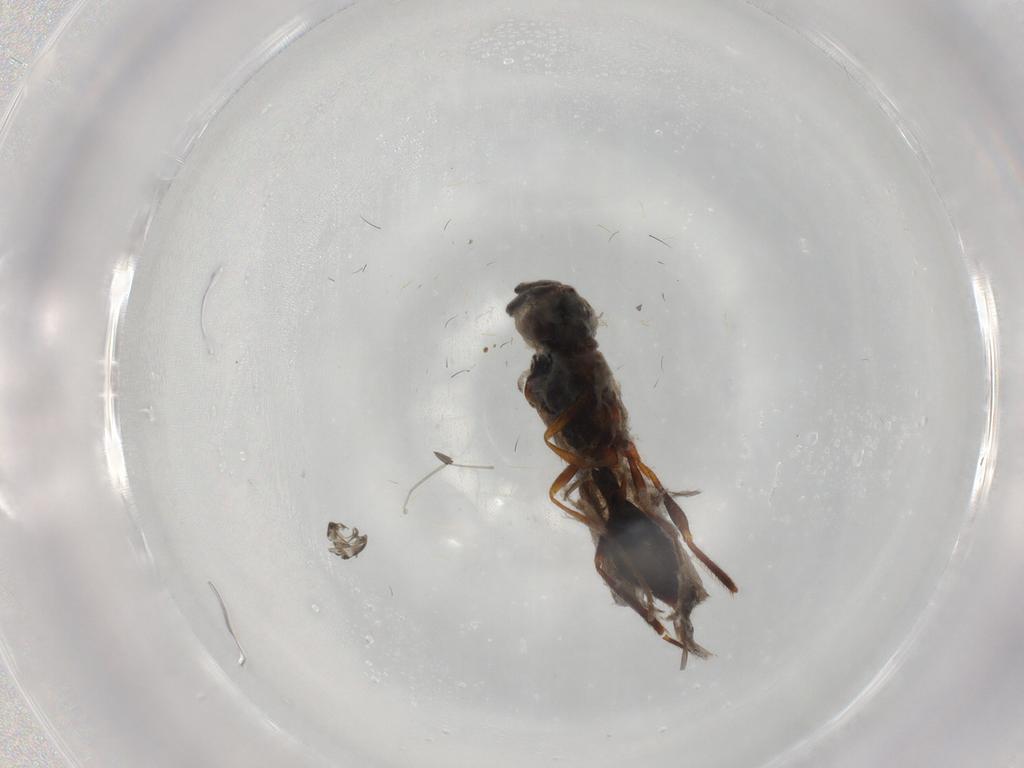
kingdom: Animalia
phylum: Arthropoda
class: Insecta
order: Hymenoptera
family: Diapriidae
